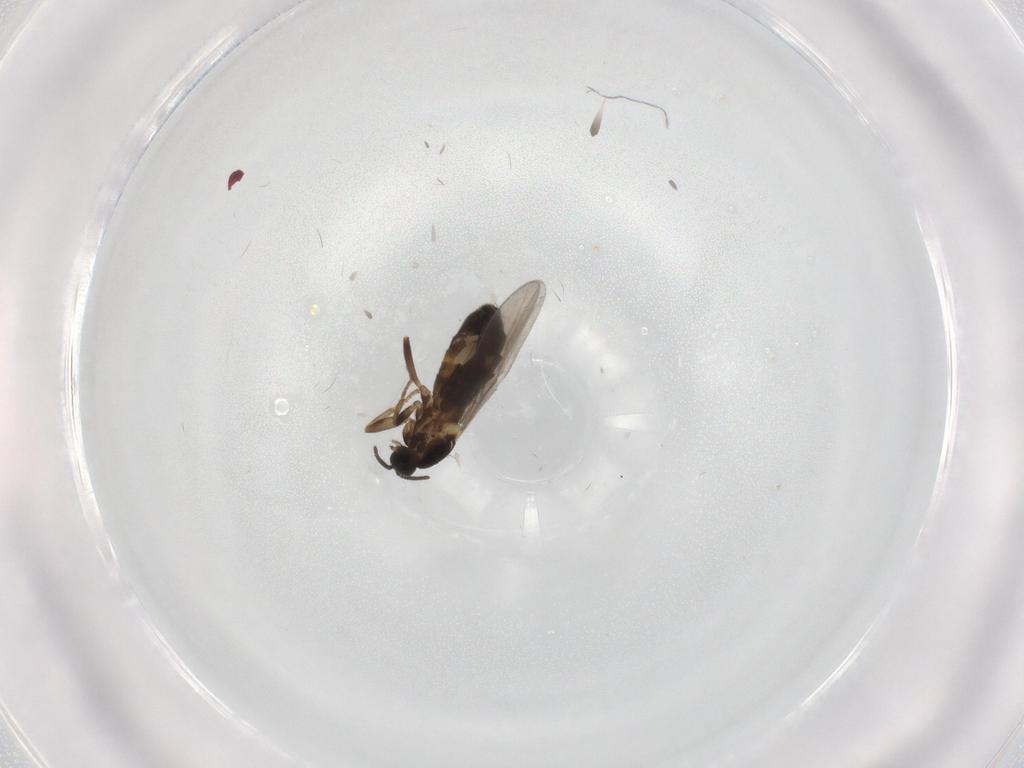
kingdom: Animalia
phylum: Arthropoda
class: Insecta
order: Diptera
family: Scatopsidae
